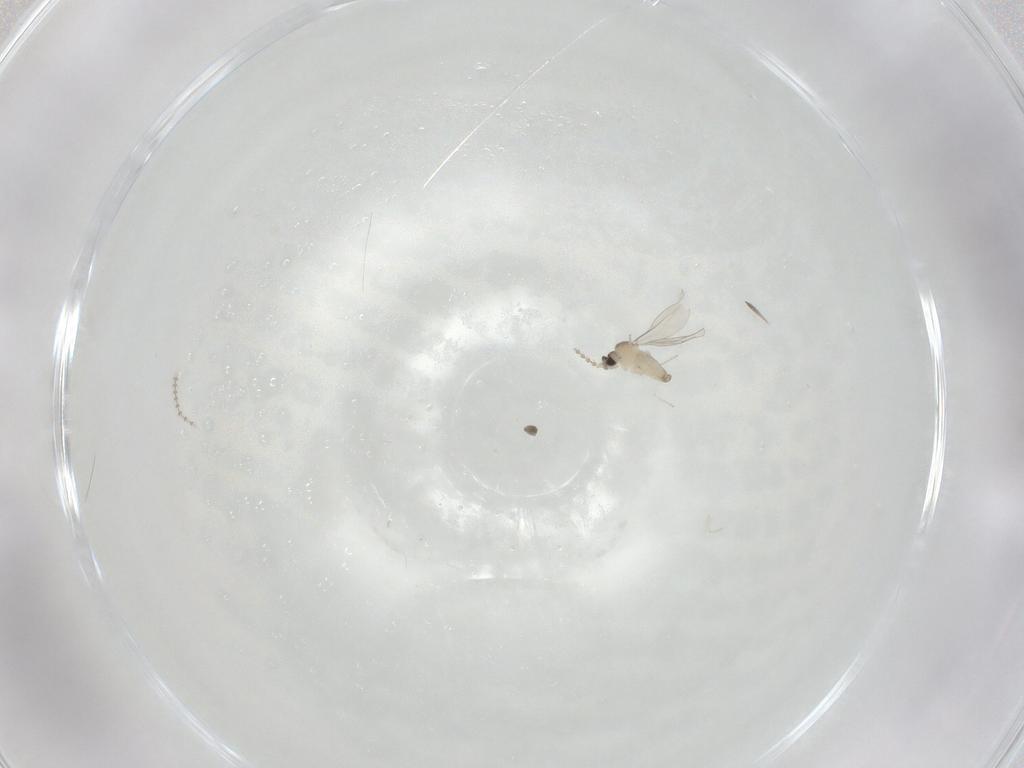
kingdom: Animalia
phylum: Arthropoda
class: Insecta
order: Diptera
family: Cecidomyiidae
